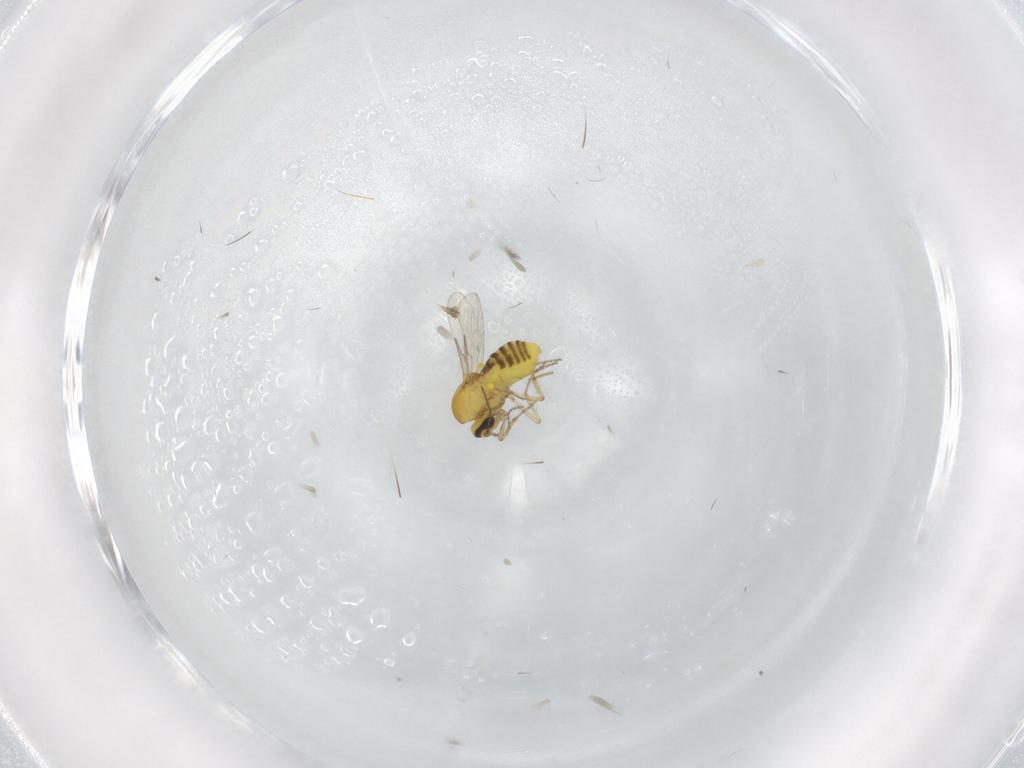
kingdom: Animalia
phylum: Arthropoda
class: Insecta
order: Diptera
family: Ceratopogonidae
